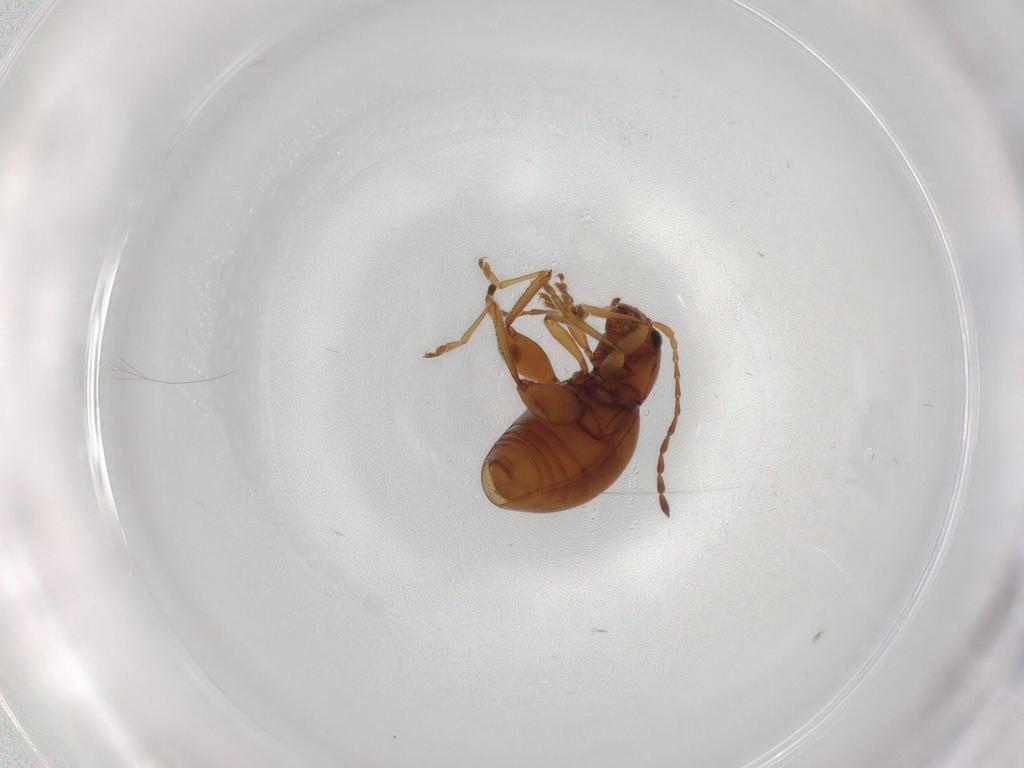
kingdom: Animalia
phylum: Arthropoda
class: Insecta
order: Coleoptera
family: Chrysomelidae
